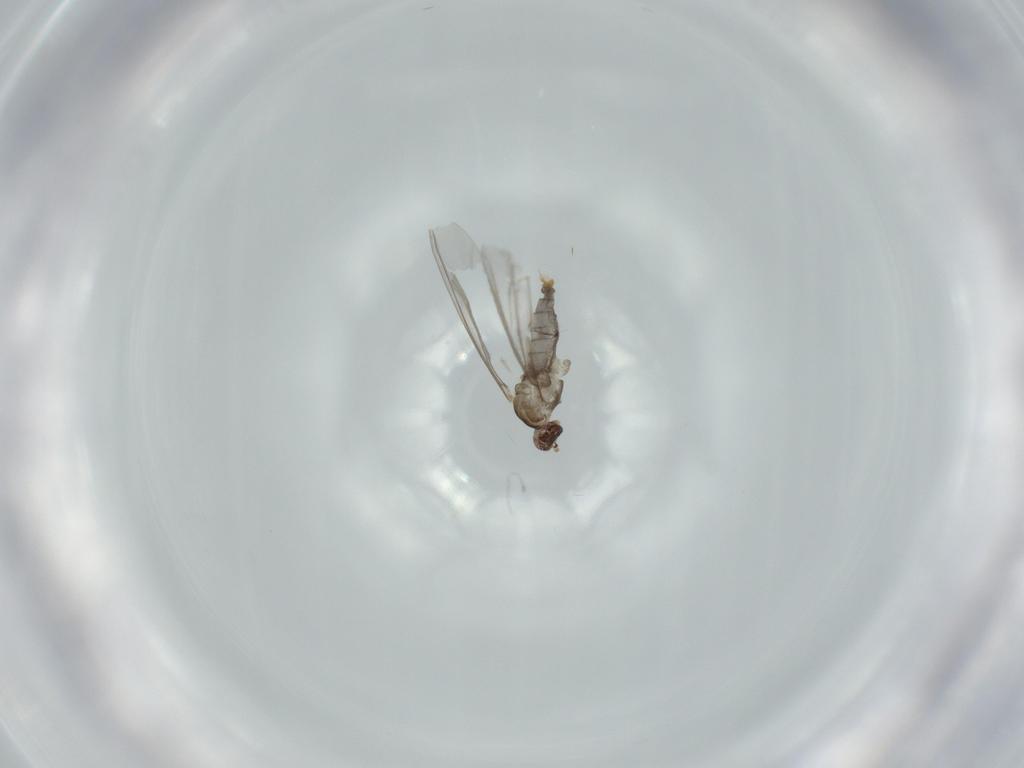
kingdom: Animalia
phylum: Arthropoda
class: Insecta
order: Diptera
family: Cecidomyiidae
